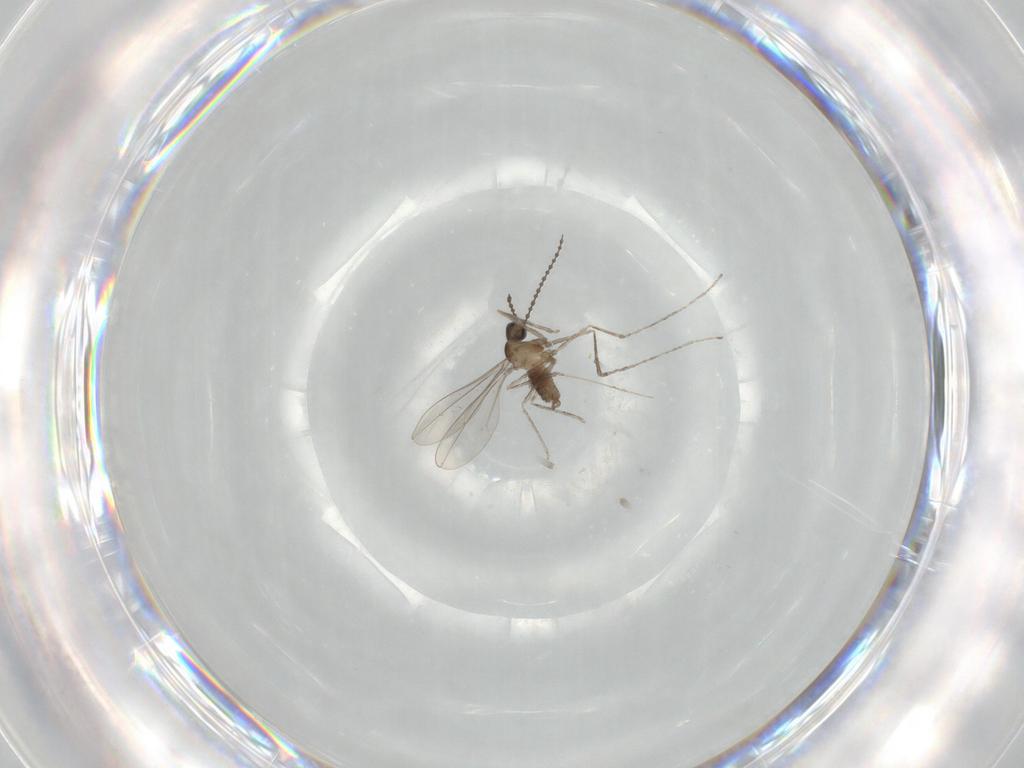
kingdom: Animalia
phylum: Arthropoda
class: Insecta
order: Diptera
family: Cecidomyiidae
